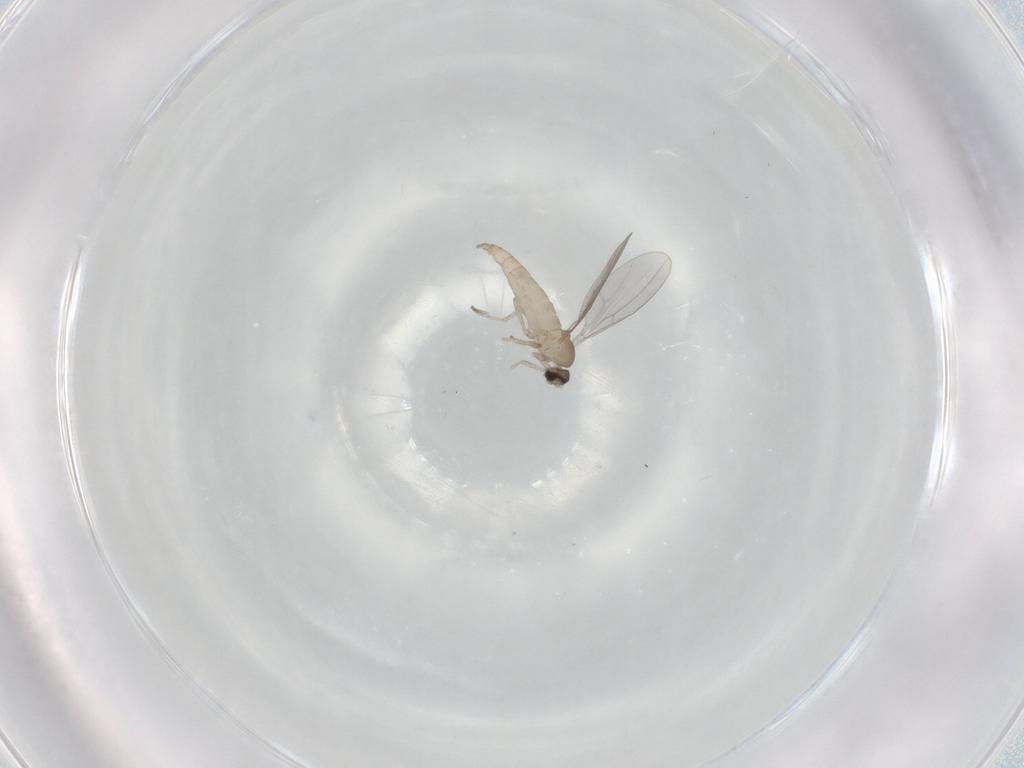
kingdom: Animalia
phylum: Arthropoda
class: Insecta
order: Diptera
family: Cecidomyiidae
